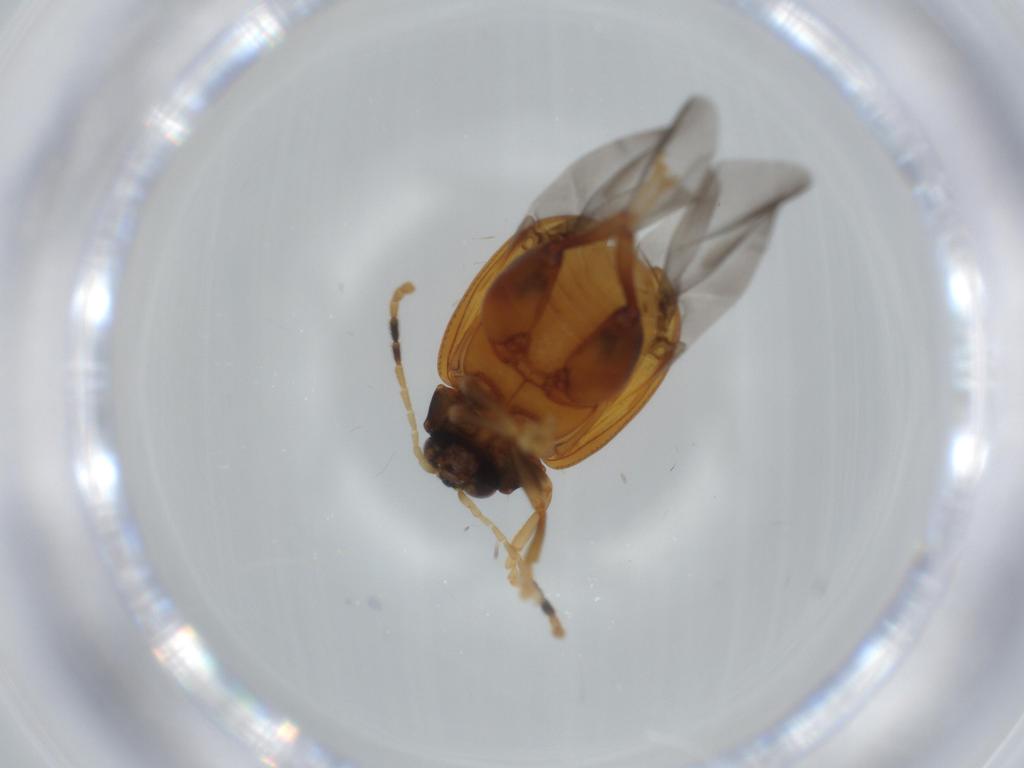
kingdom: Animalia
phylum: Arthropoda
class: Insecta
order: Coleoptera
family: Chrysomelidae
